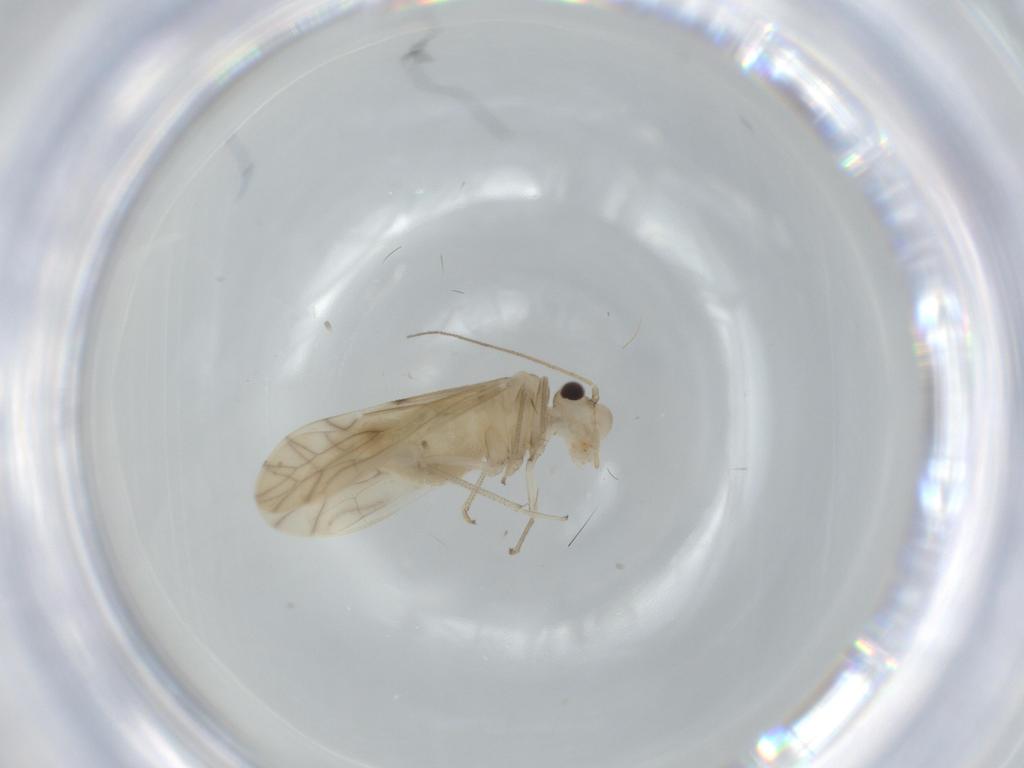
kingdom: Animalia
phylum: Arthropoda
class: Insecta
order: Psocodea
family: Caeciliusidae
